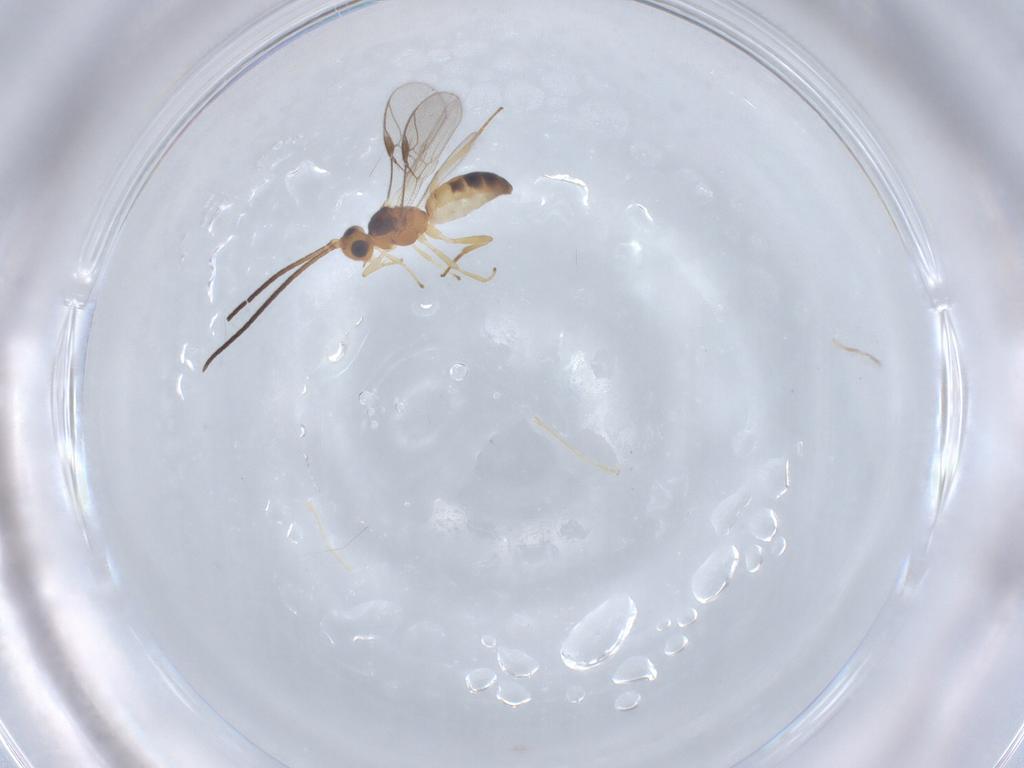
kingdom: Animalia
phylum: Arthropoda
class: Insecta
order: Hymenoptera
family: Braconidae
